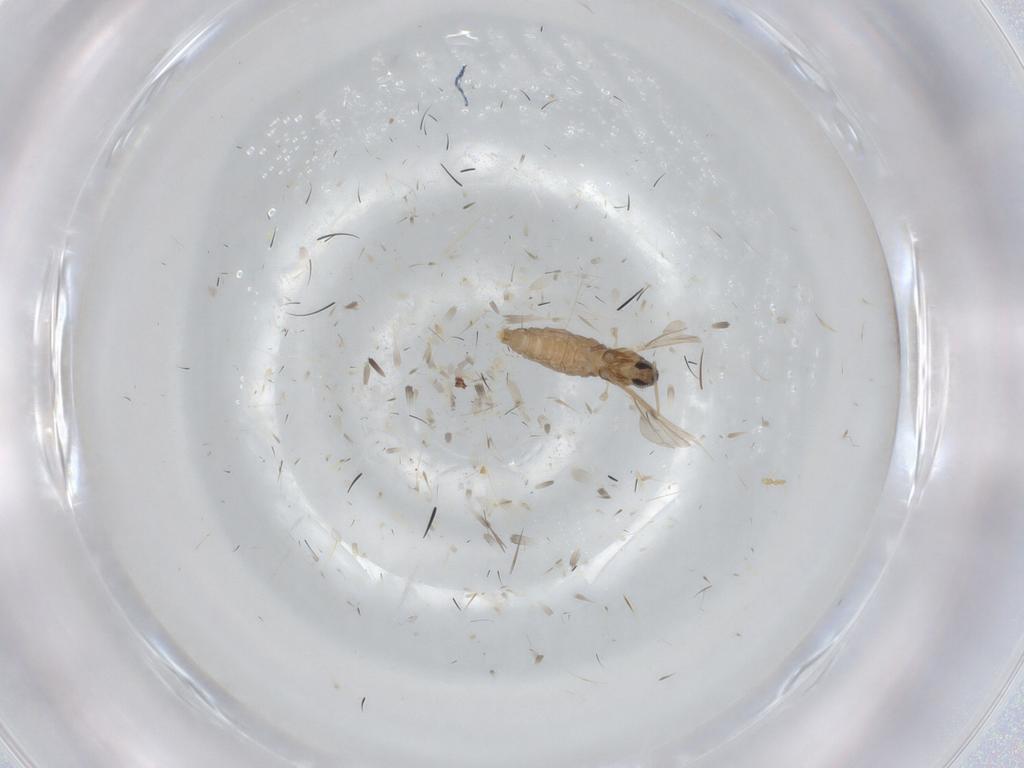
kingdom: Animalia
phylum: Arthropoda
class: Insecta
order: Diptera
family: Cecidomyiidae
